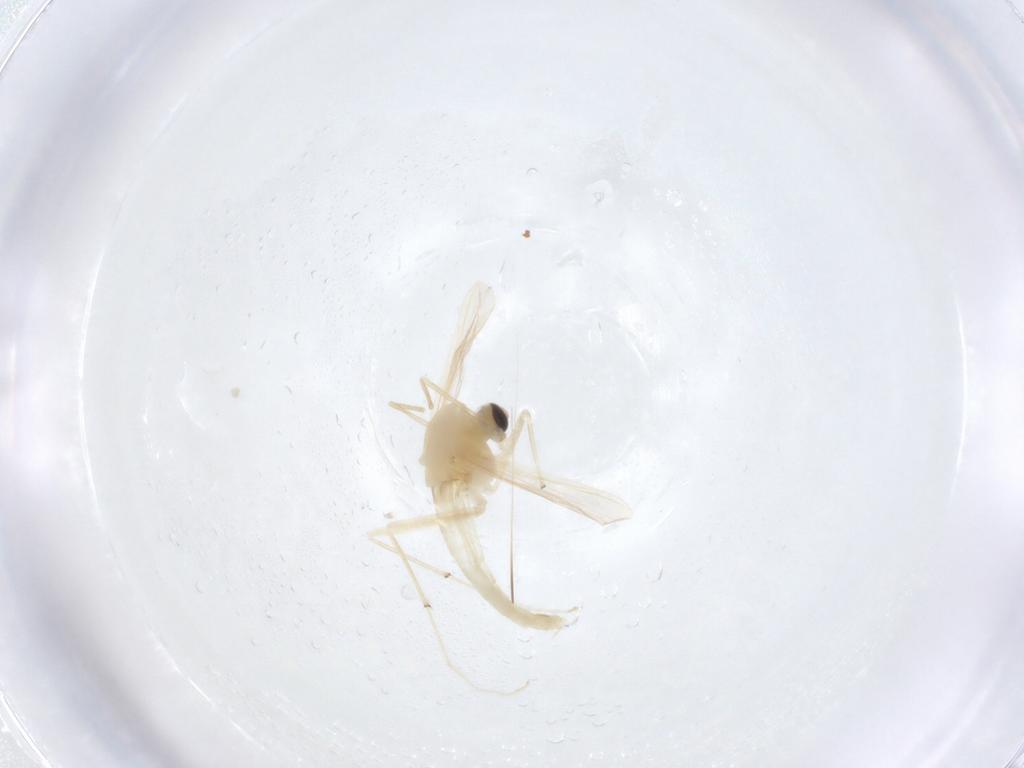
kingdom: Animalia
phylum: Arthropoda
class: Insecta
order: Diptera
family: Chironomidae
